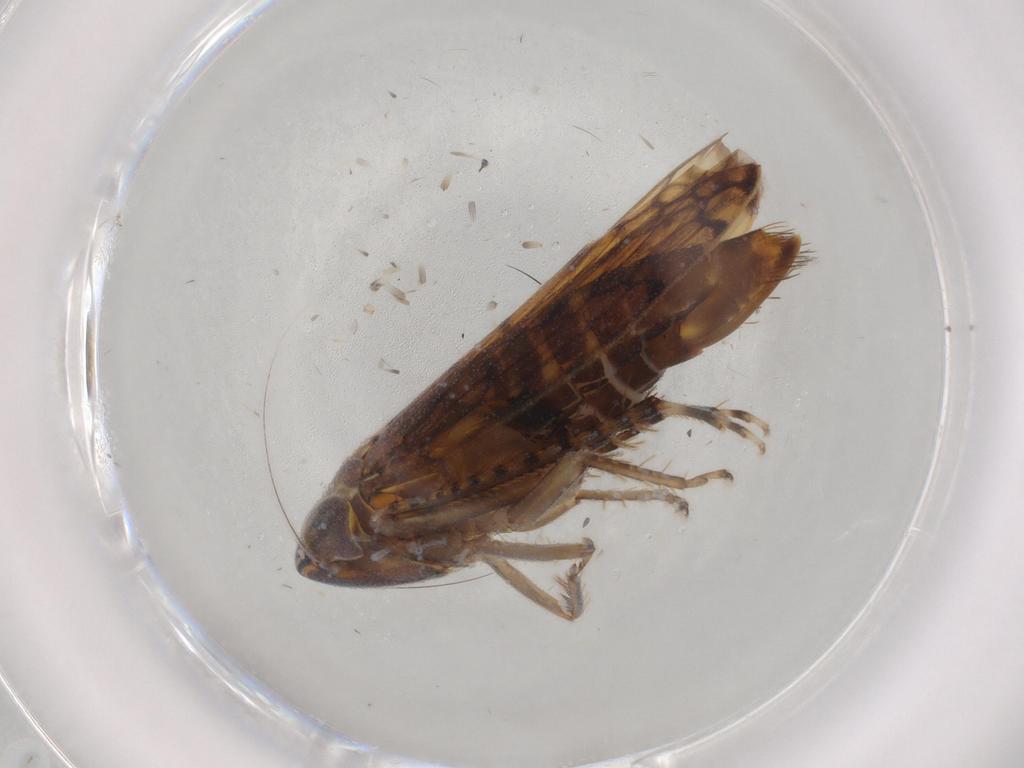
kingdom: Animalia
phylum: Arthropoda
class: Insecta
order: Hemiptera
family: Cicadellidae
